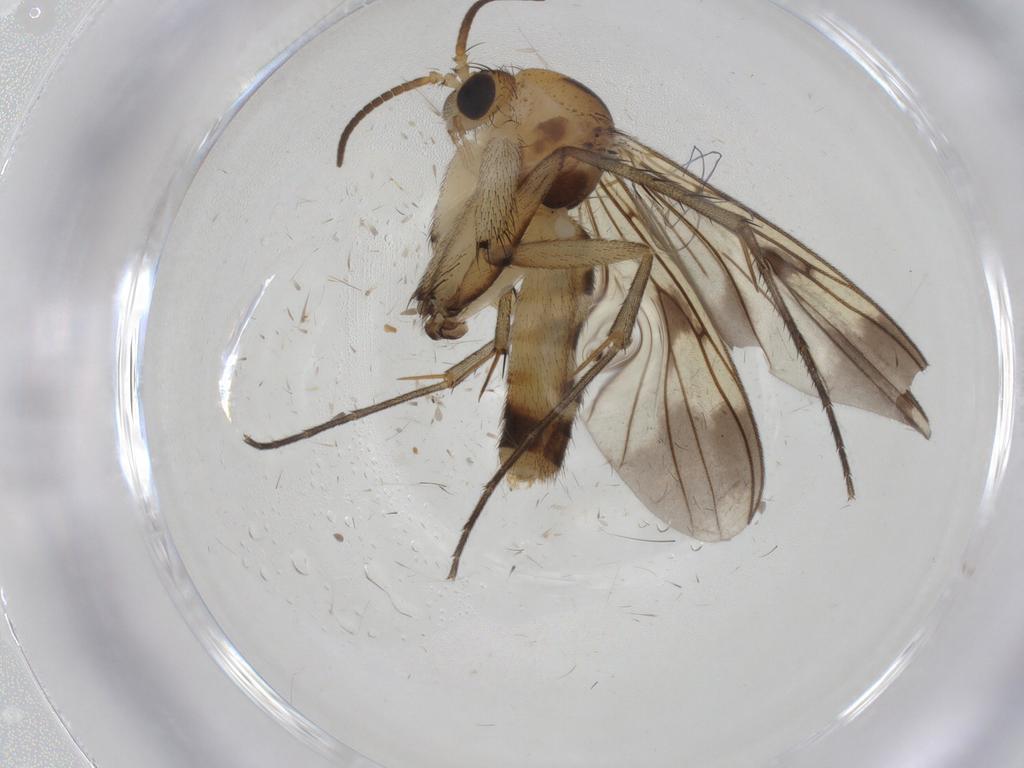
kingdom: Animalia
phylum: Arthropoda
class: Insecta
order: Diptera
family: Mycetophilidae
